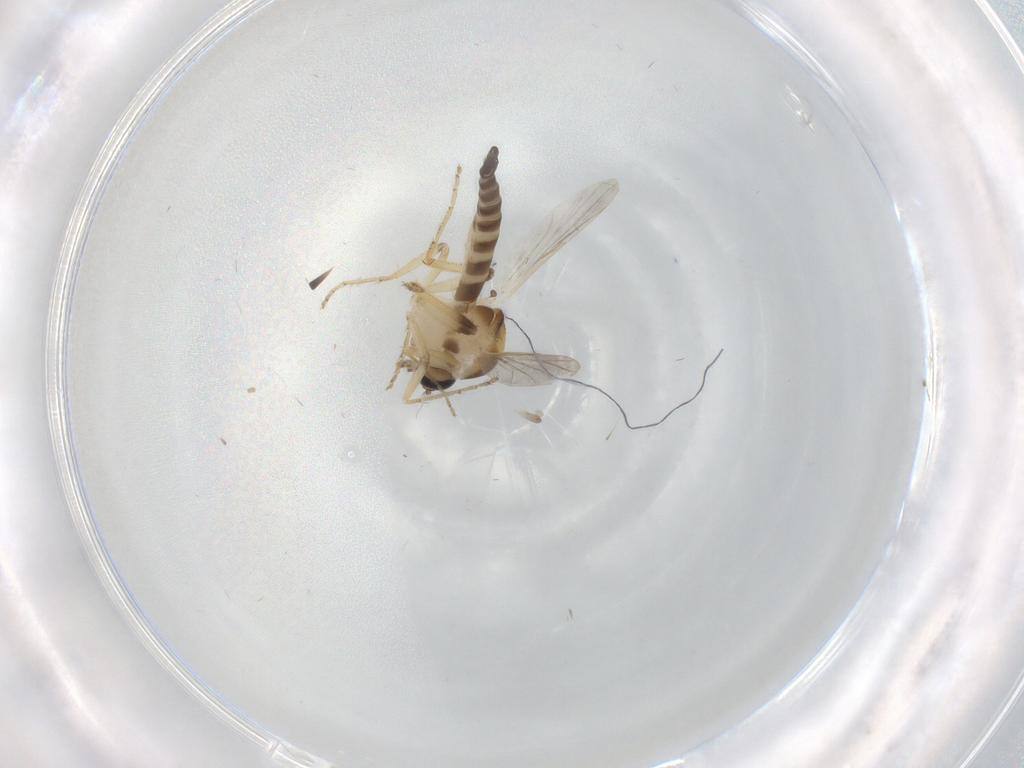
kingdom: Animalia
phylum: Arthropoda
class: Insecta
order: Diptera
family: Ceratopogonidae
